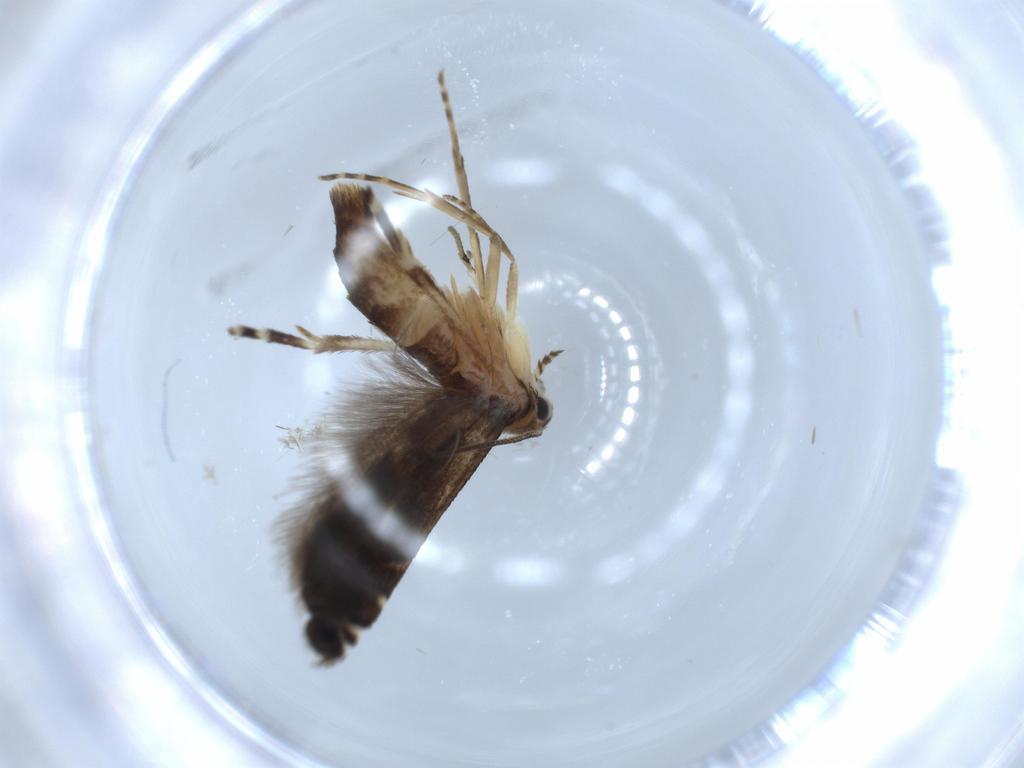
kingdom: Animalia
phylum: Arthropoda
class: Insecta
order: Lepidoptera
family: Glyphipterigidae
